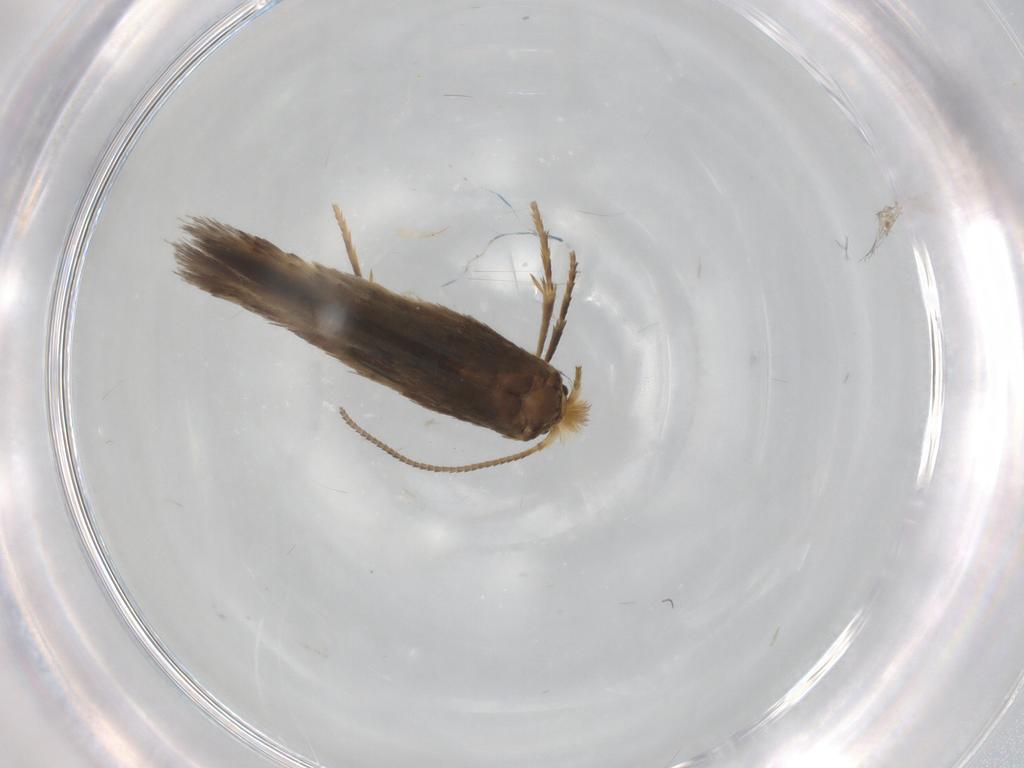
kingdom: Animalia
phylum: Arthropoda
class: Insecta
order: Lepidoptera
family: Nepticulidae
